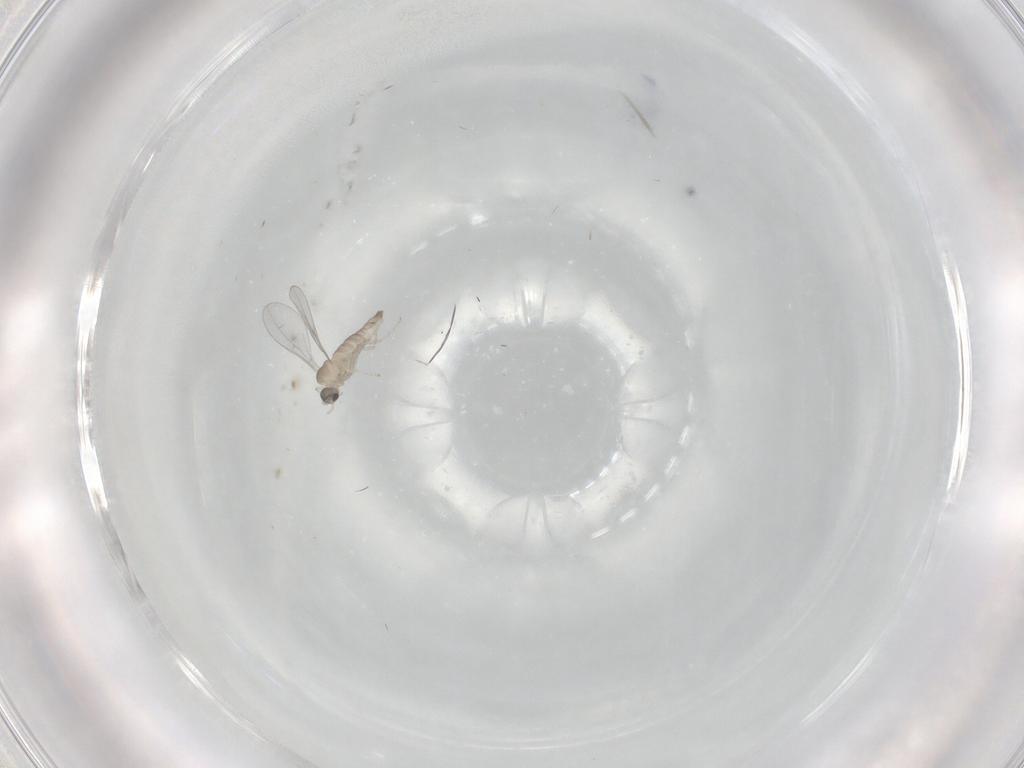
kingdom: Animalia
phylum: Arthropoda
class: Insecta
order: Diptera
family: Cecidomyiidae
